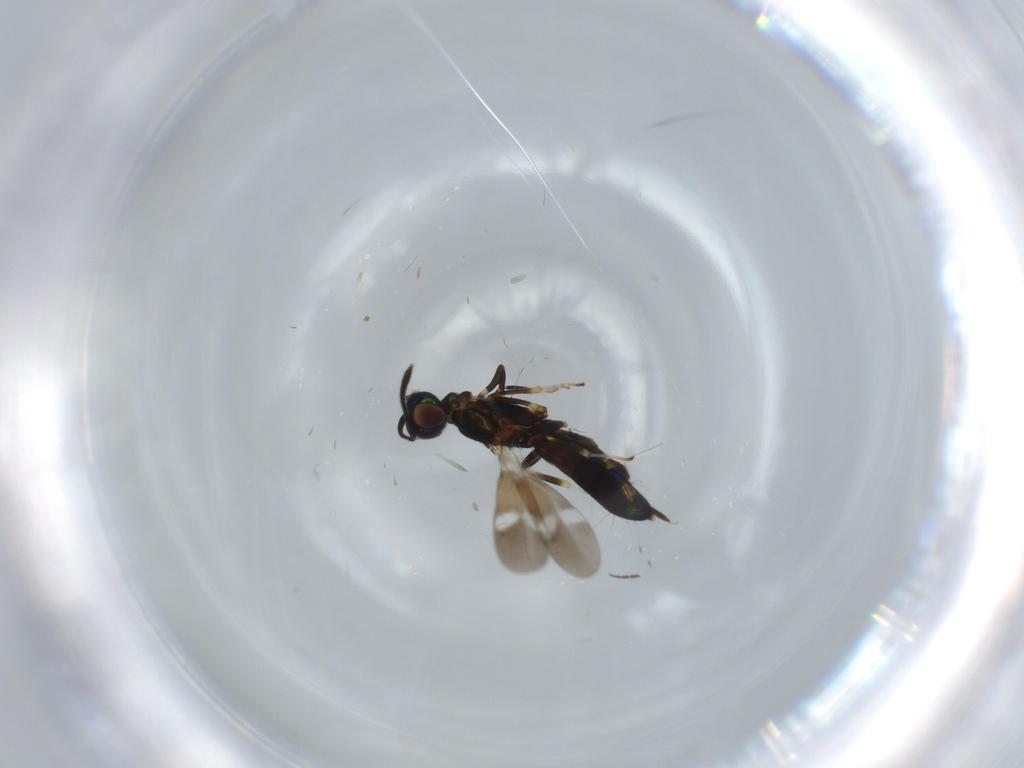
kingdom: Animalia
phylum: Arthropoda
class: Insecta
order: Hymenoptera
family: Eupelmidae
